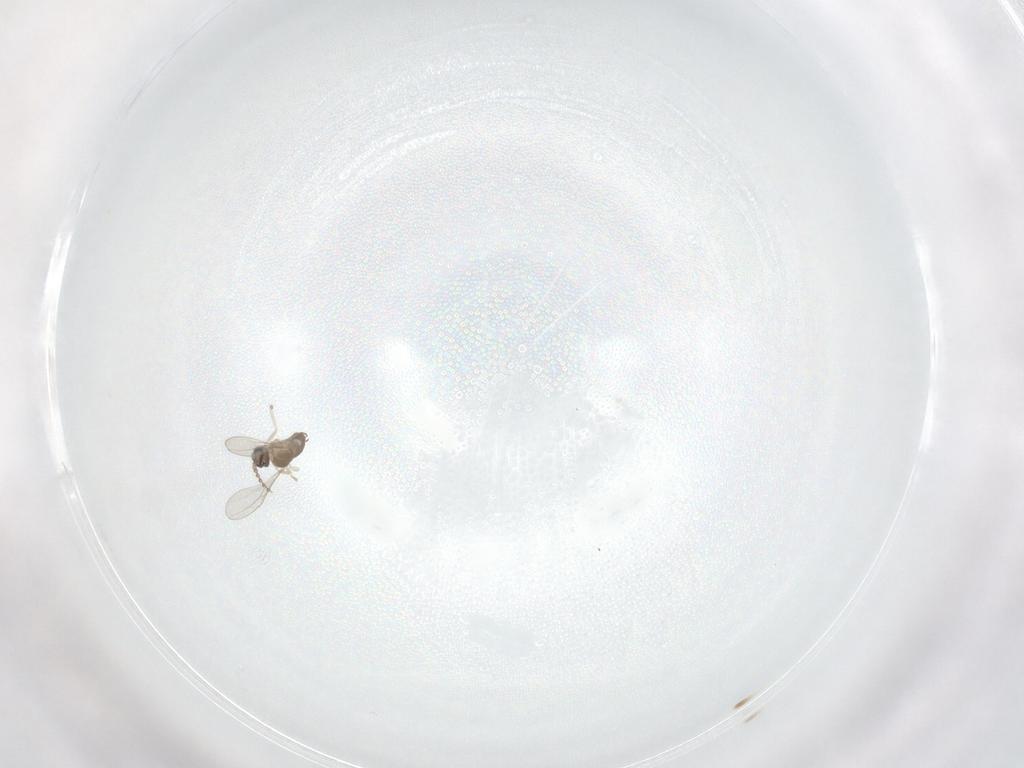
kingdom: Animalia
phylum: Arthropoda
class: Insecta
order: Diptera
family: Cecidomyiidae
